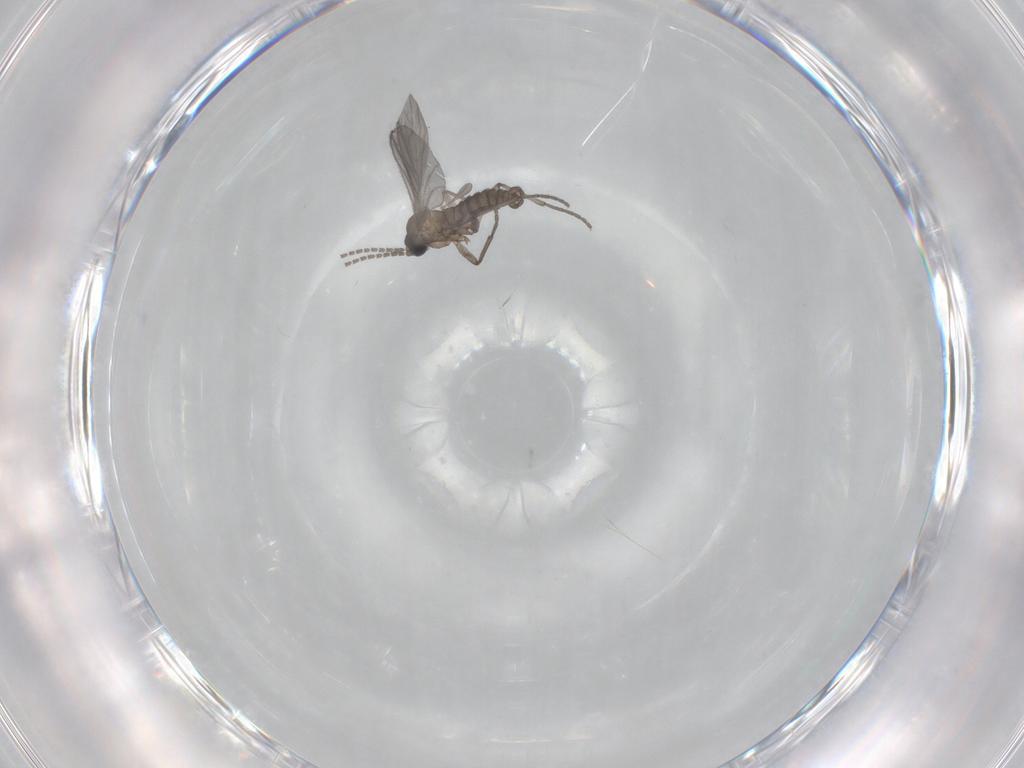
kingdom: Animalia
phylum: Arthropoda
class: Insecta
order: Diptera
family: Sciaridae
